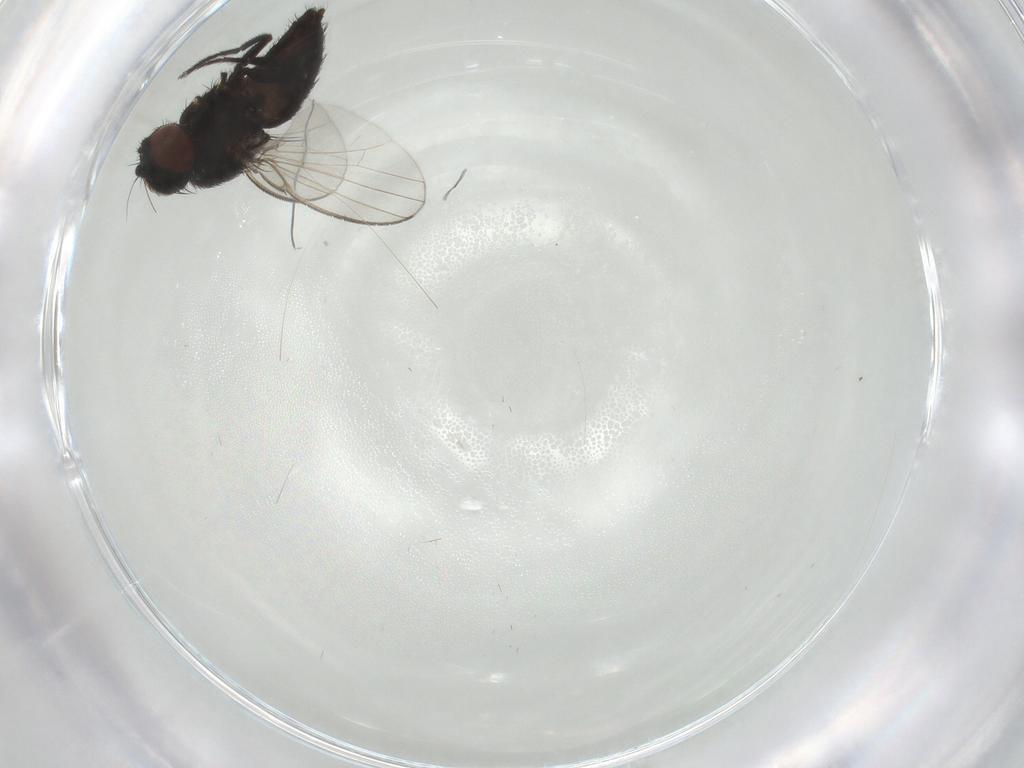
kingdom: Animalia
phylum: Arthropoda
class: Insecta
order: Diptera
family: Milichiidae
